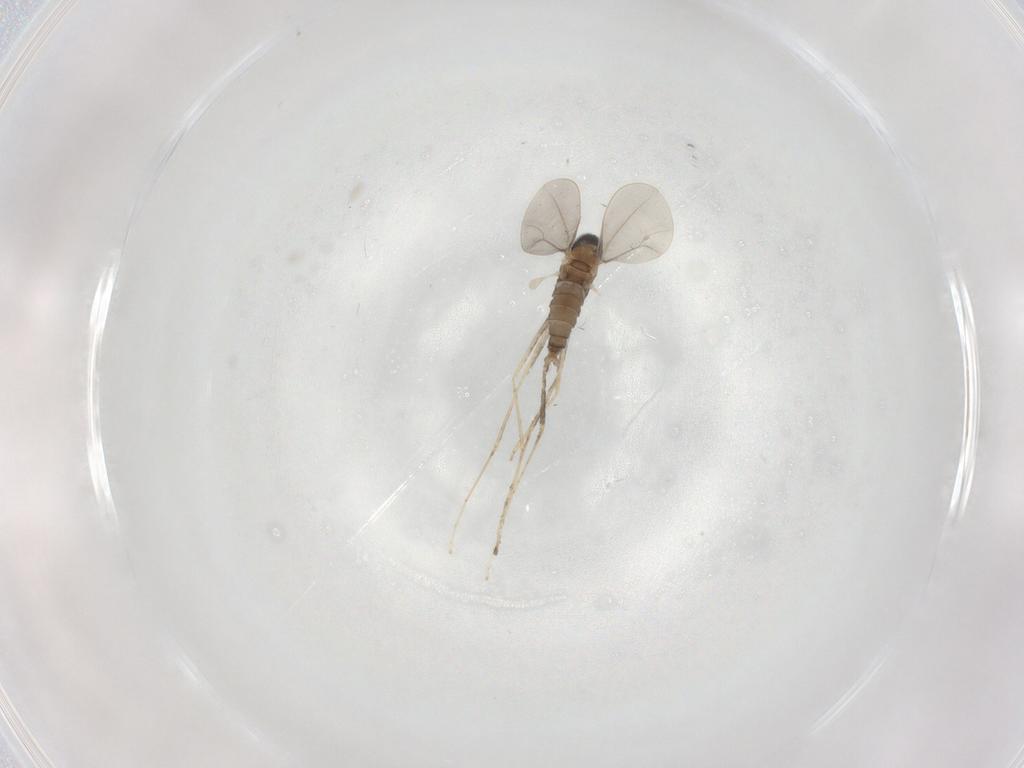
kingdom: Animalia
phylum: Arthropoda
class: Insecta
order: Diptera
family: Cecidomyiidae
